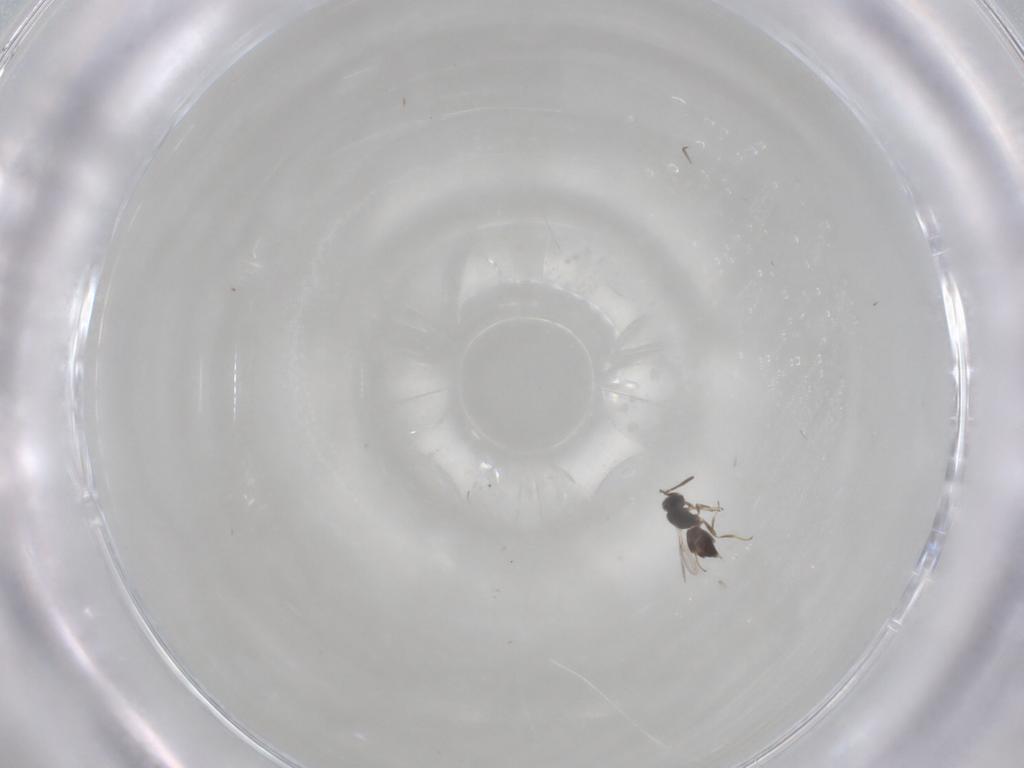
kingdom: Animalia
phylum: Arthropoda
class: Insecta
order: Hymenoptera
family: Scelionidae
